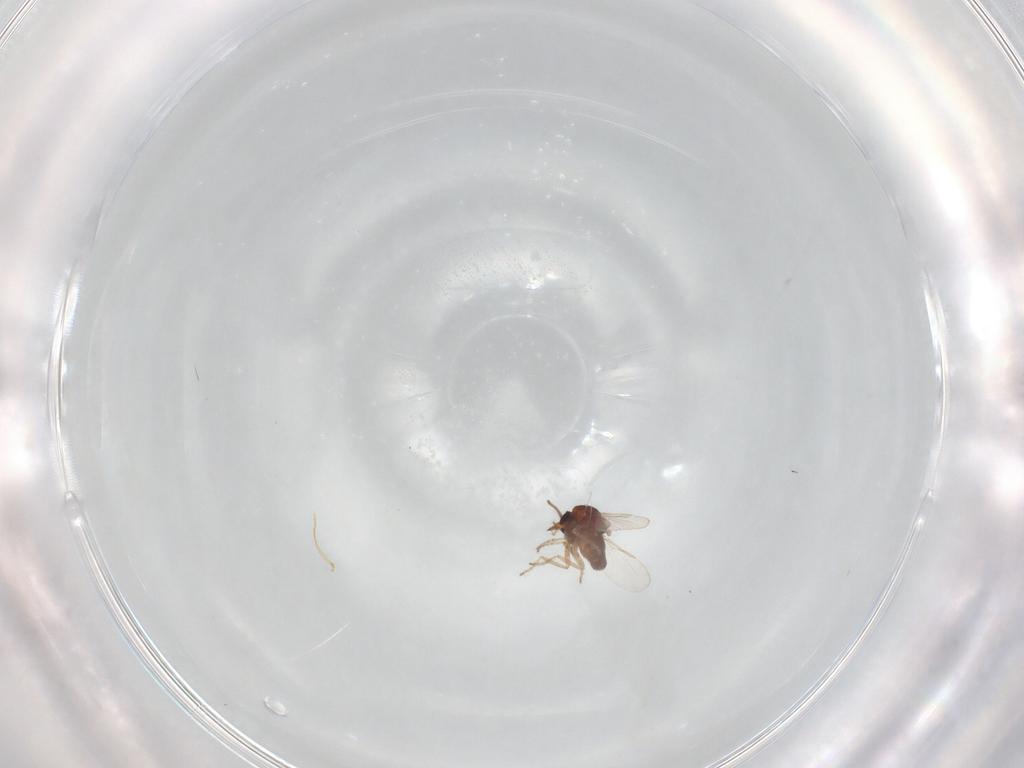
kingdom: Animalia
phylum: Arthropoda
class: Insecta
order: Diptera
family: Ceratopogonidae
